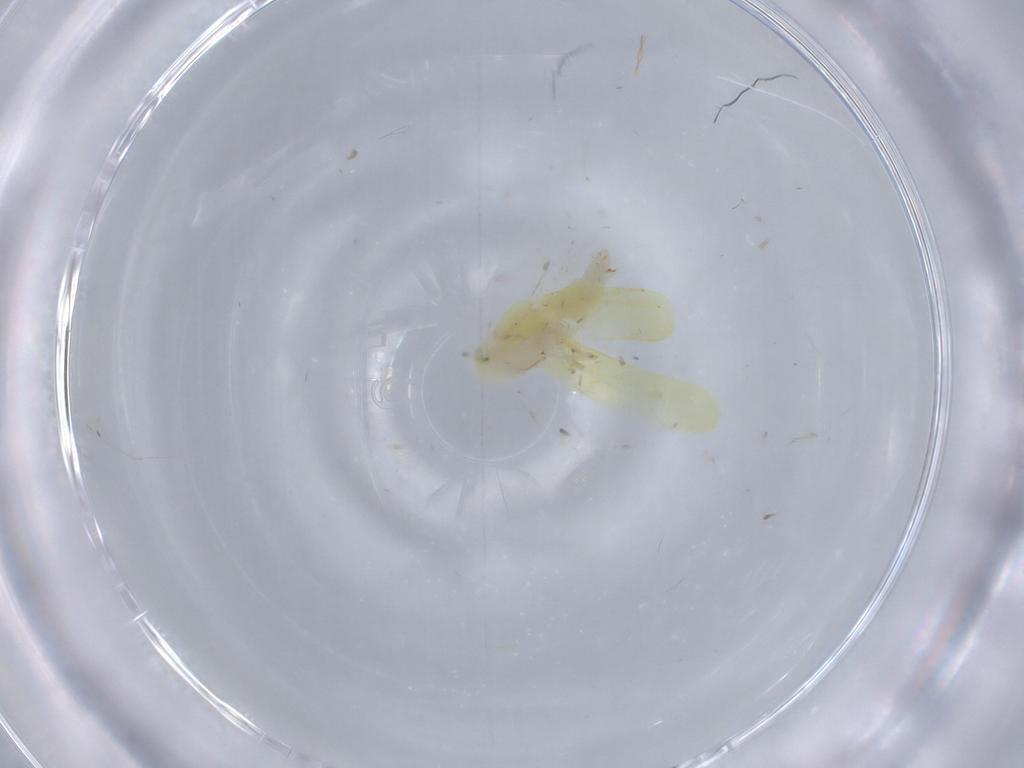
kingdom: Animalia
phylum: Arthropoda
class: Insecta
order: Hemiptera
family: Cicadellidae
